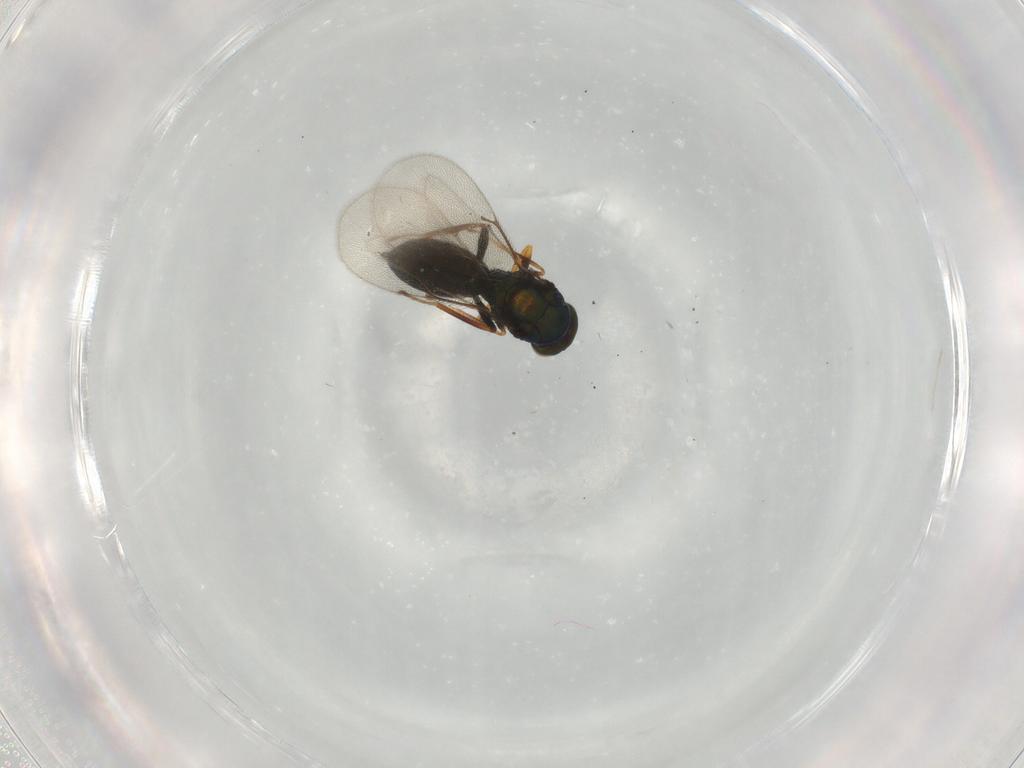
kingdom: Animalia
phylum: Arthropoda
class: Insecta
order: Hymenoptera
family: Eulophidae
